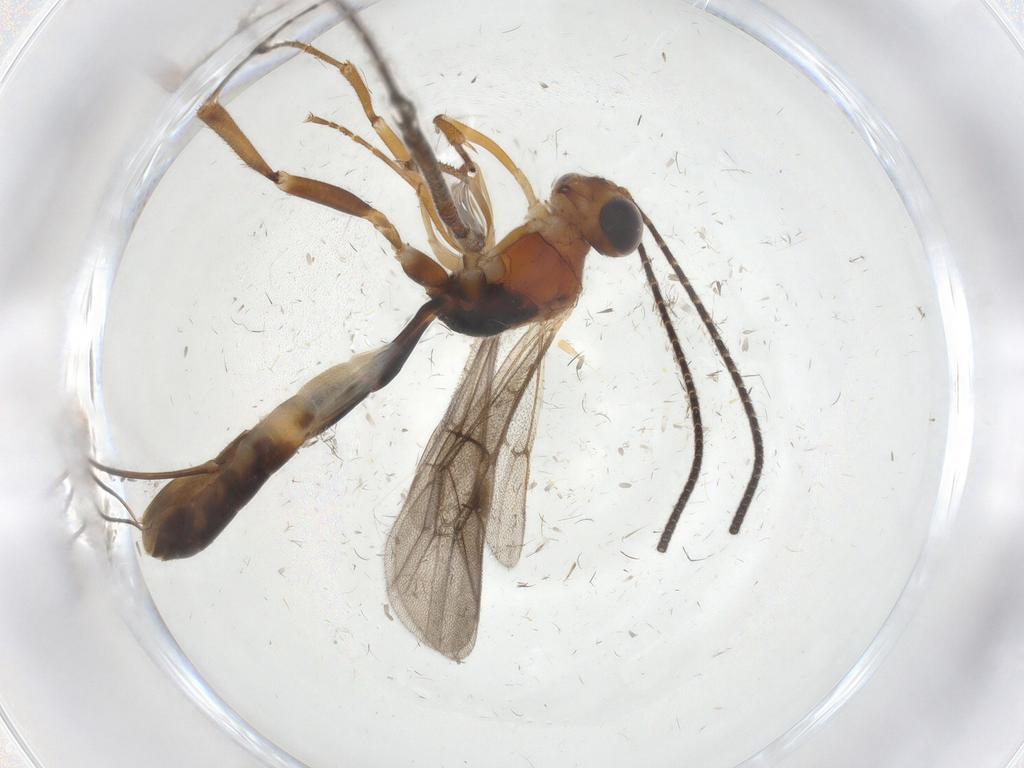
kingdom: Animalia
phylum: Arthropoda
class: Insecta
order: Hymenoptera
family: Scelionidae
